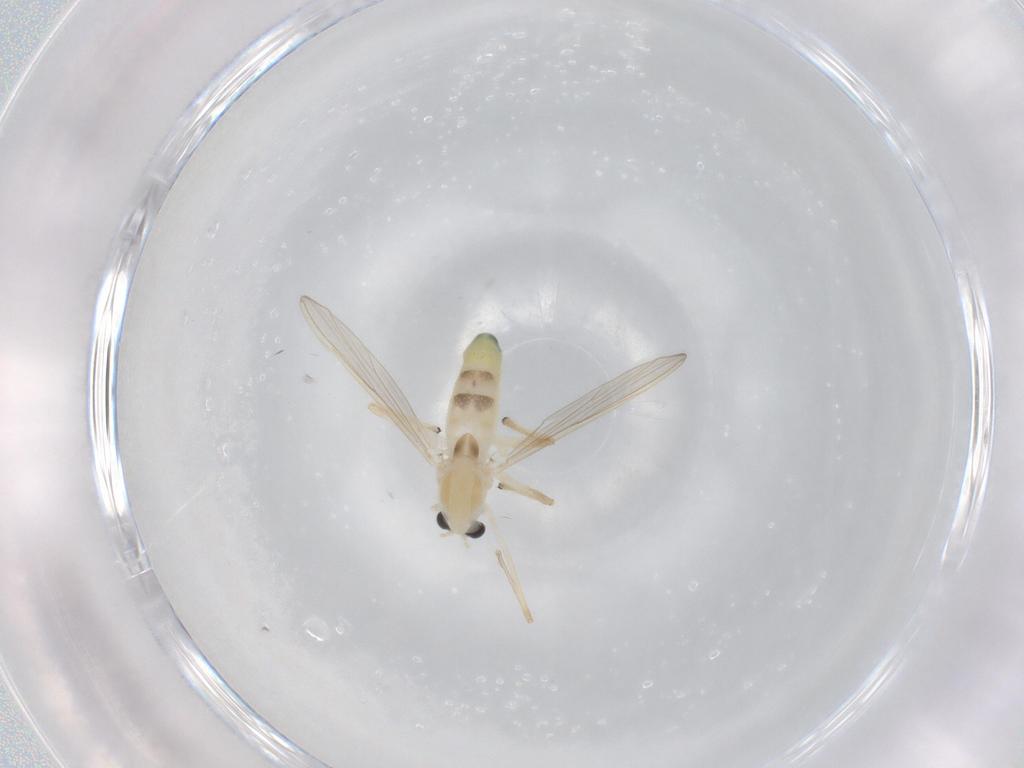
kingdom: Animalia
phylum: Arthropoda
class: Insecta
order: Diptera
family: Chironomidae
